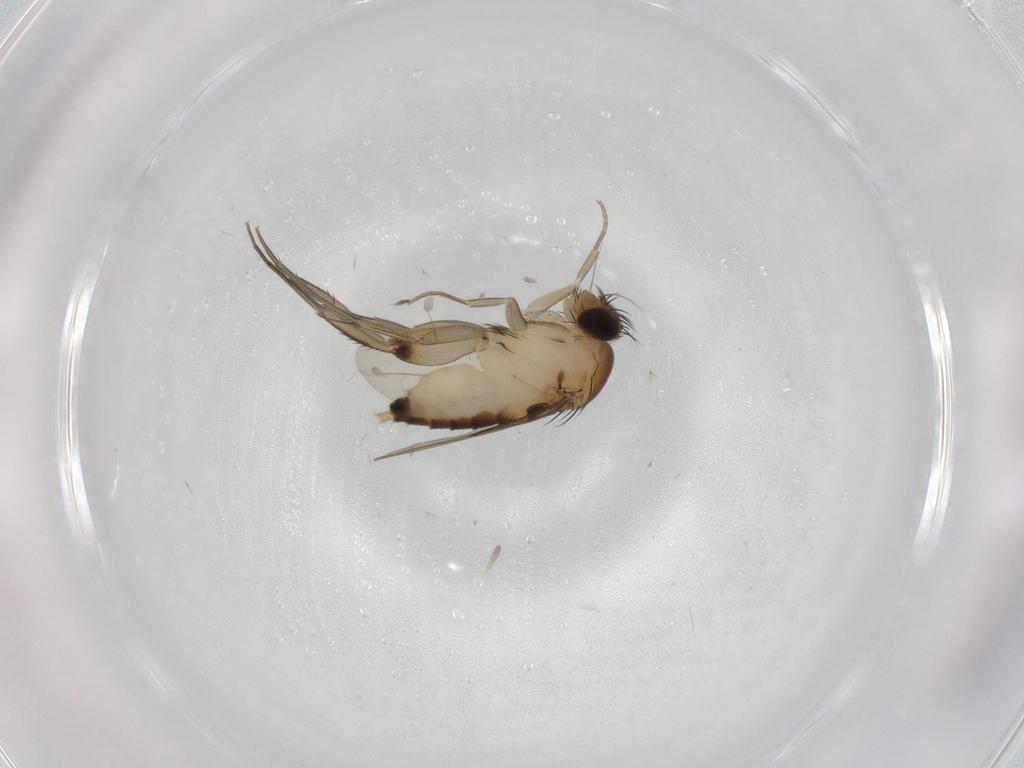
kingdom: Animalia
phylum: Arthropoda
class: Insecta
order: Diptera
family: Phoridae
